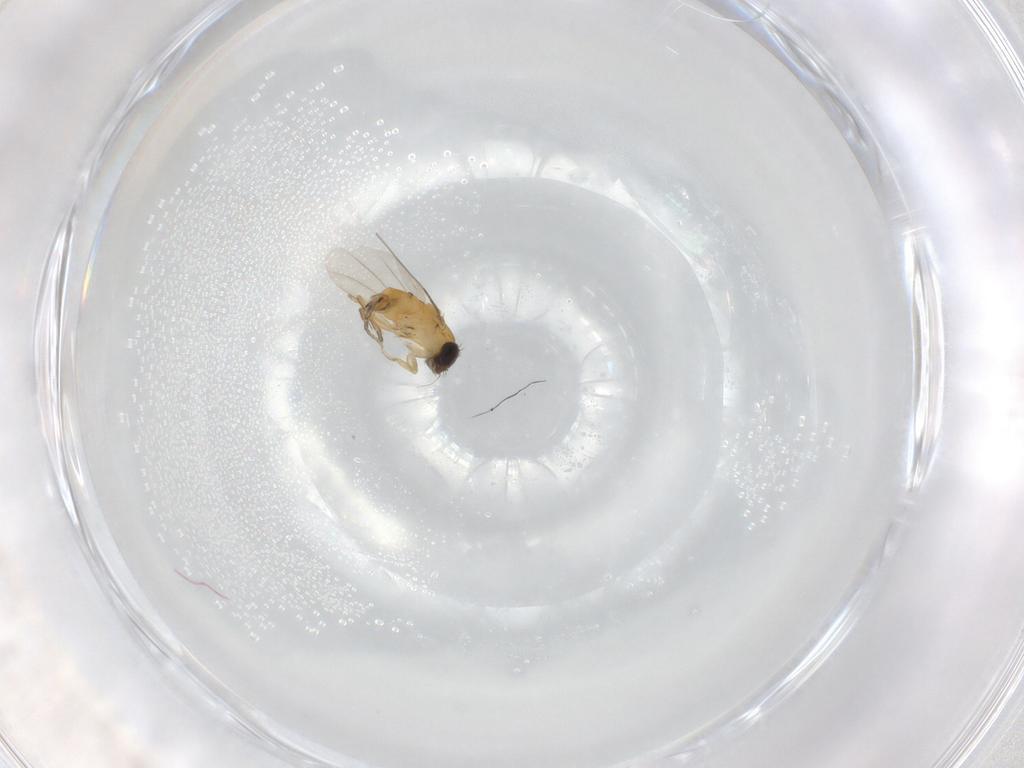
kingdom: Animalia
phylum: Arthropoda
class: Insecta
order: Diptera
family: Phoridae
